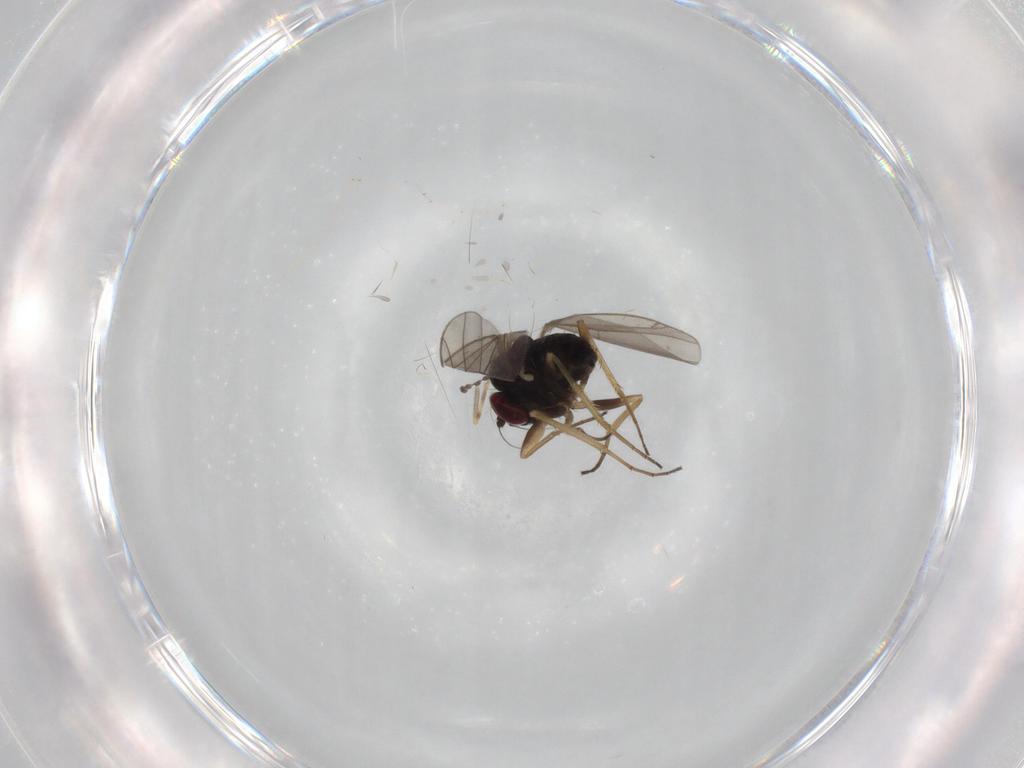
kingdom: Animalia
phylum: Arthropoda
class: Insecta
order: Diptera
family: Cecidomyiidae
